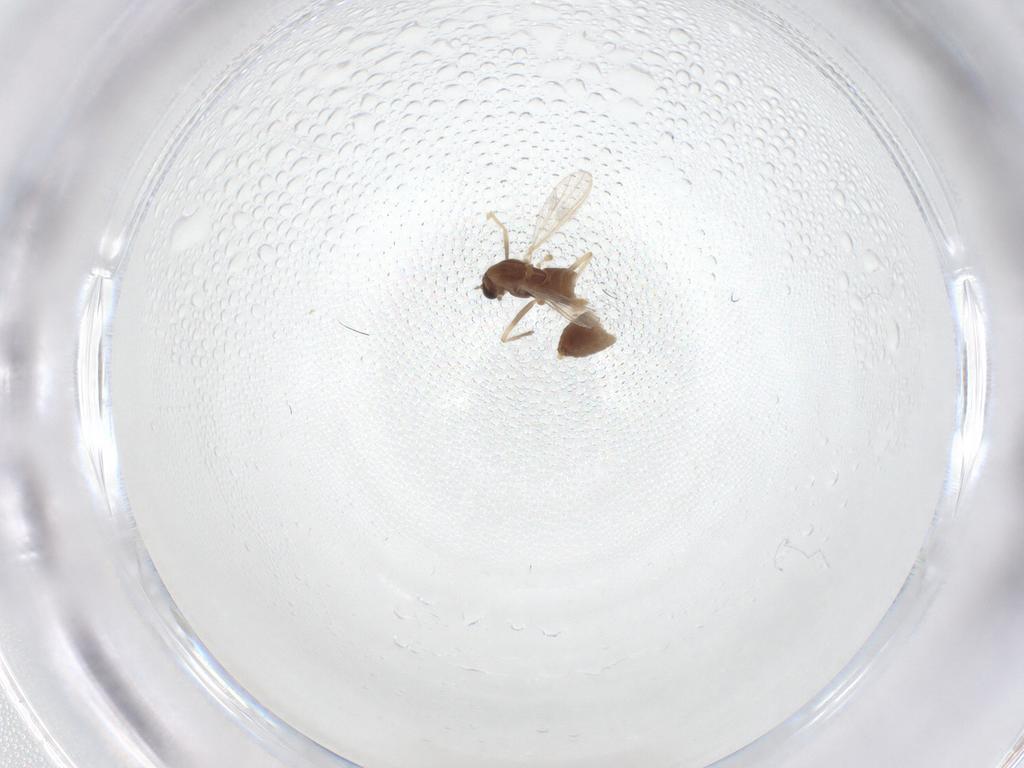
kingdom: Animalia
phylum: Arthropoda
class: Insecta
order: Diptera
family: Chironomidae
